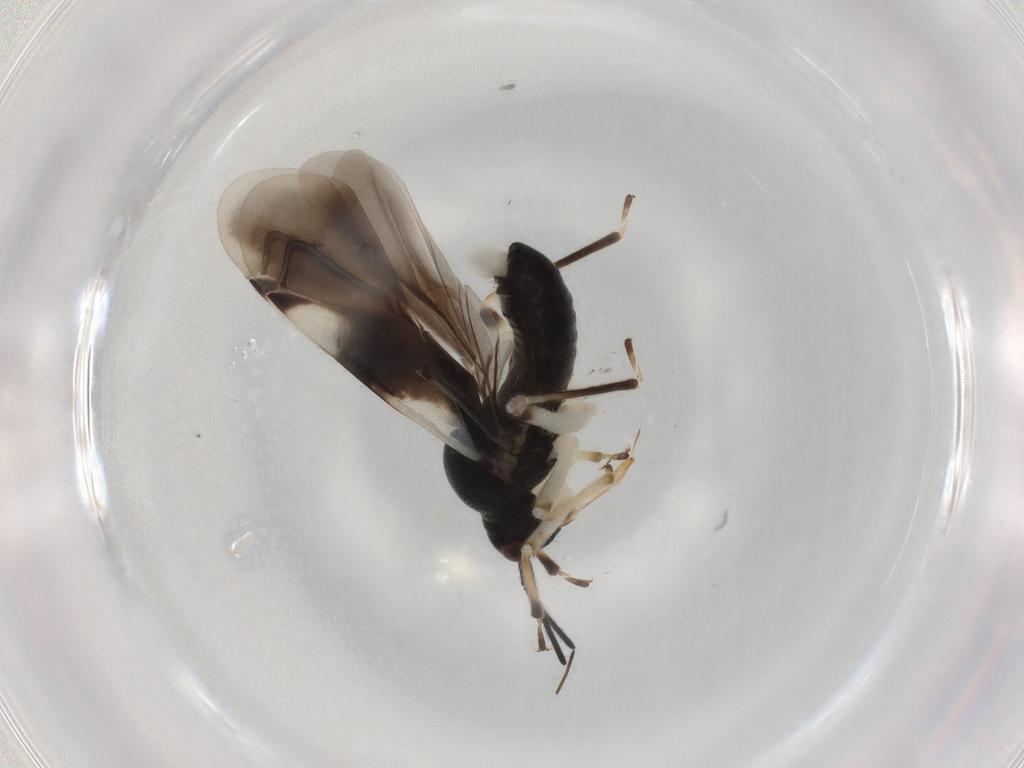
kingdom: Animalia
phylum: Arthropoda
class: Insecta
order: Hemiptera
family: Miridae
